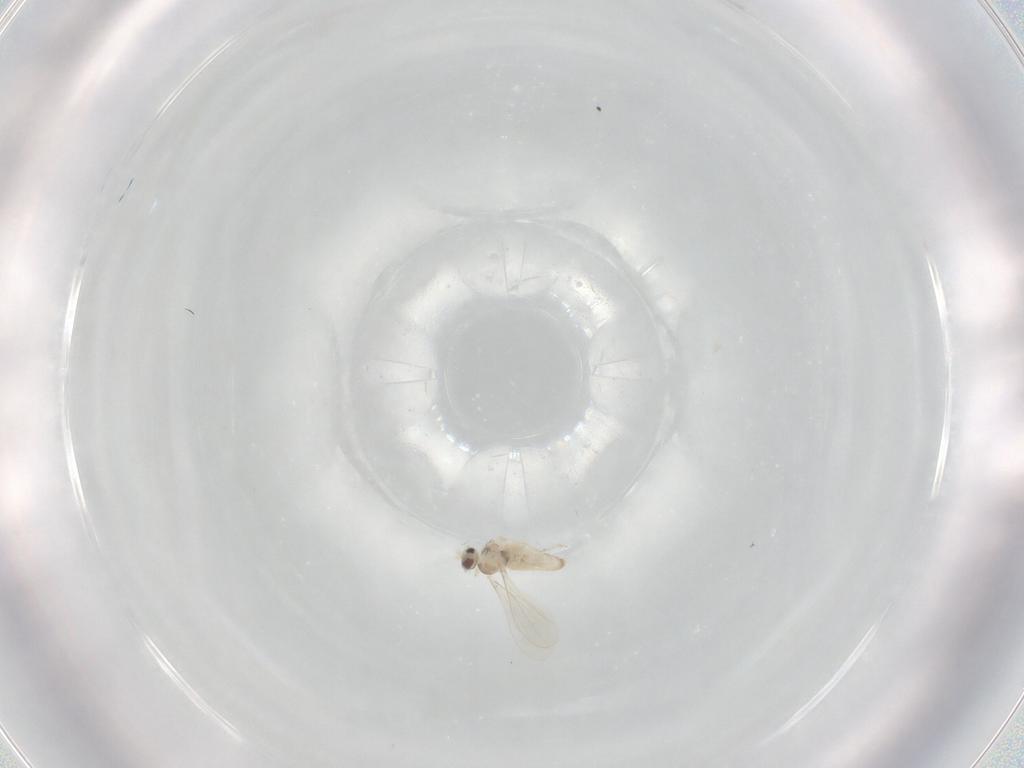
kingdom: Animalia
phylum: Arthropoda
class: Insecta
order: Diptera
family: Cecidomyiidae
